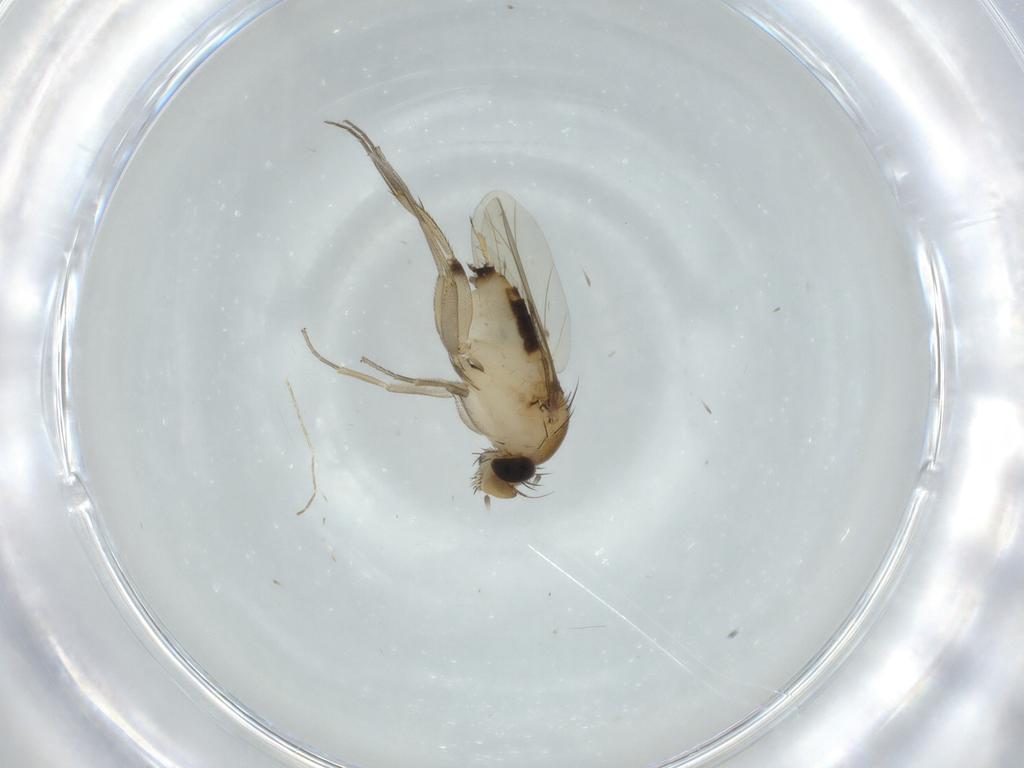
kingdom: Animalia
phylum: Arthropoda
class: Insecta
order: Diptera
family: Phoridae
